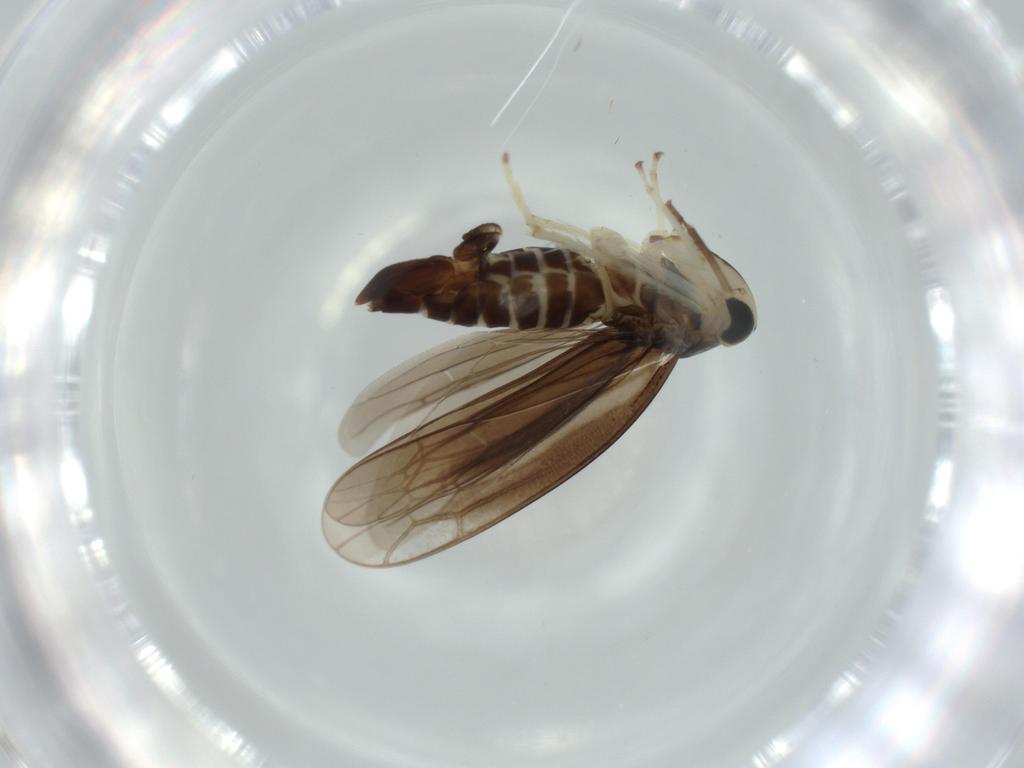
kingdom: Animalia
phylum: Arthropoda
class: Insecta
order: Hemiptera
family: Cicadellidae
